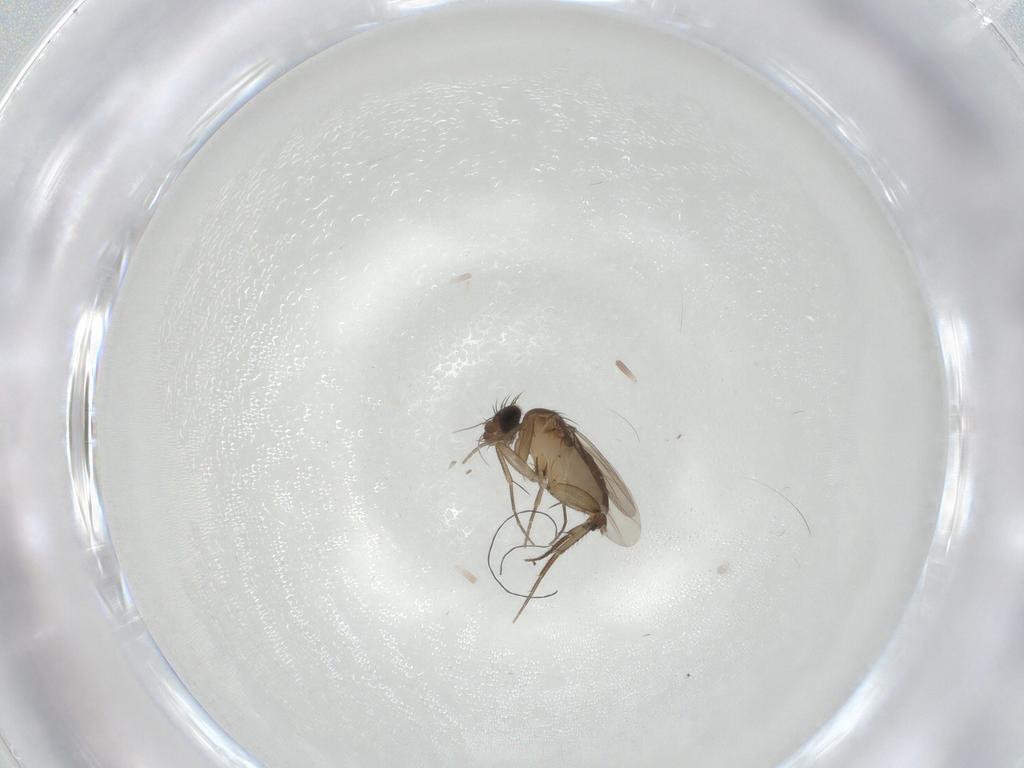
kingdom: Animalia
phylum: Arthropoda
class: Insecta
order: Diptera
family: Phoridae
